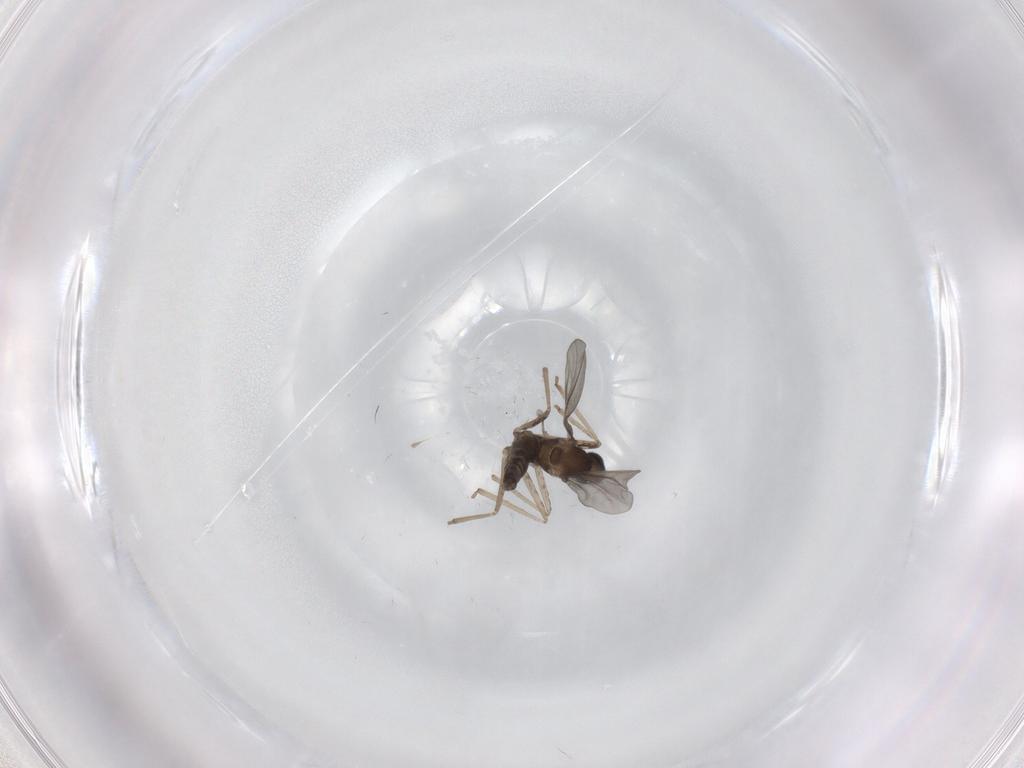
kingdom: Animalia
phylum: Arthropoda
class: Insecta
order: Diptera
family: Cecidomyiidae
